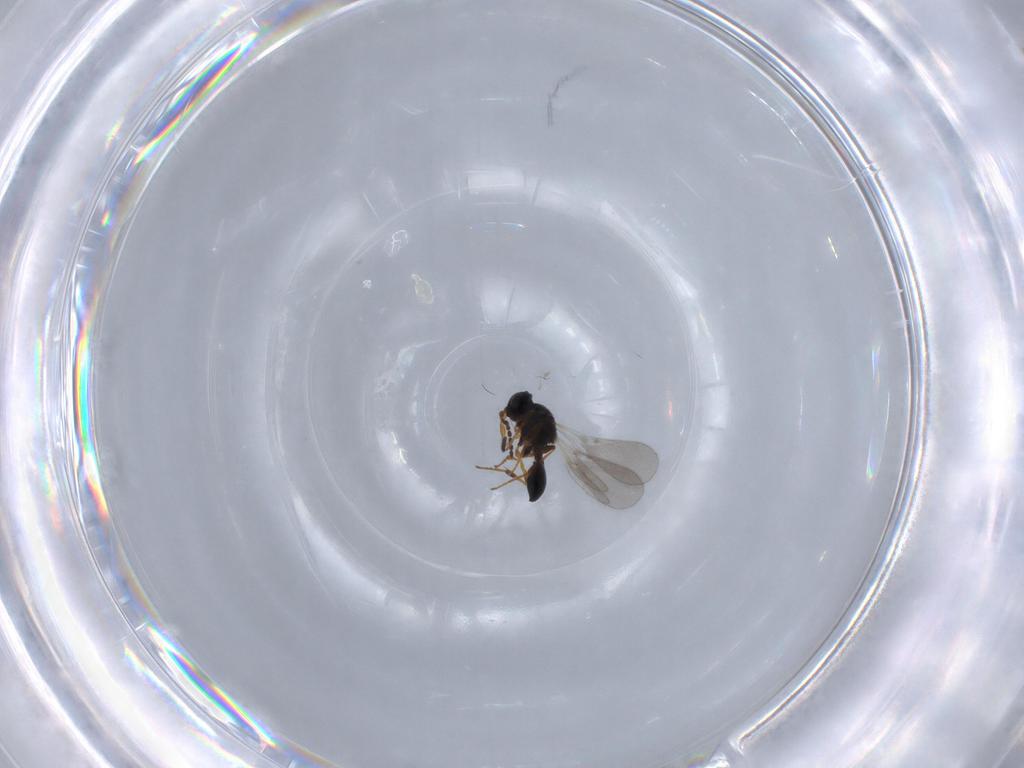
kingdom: Animalia
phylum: Arthropoda
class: Insecta
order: Hymenoptera
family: Platygastridae
